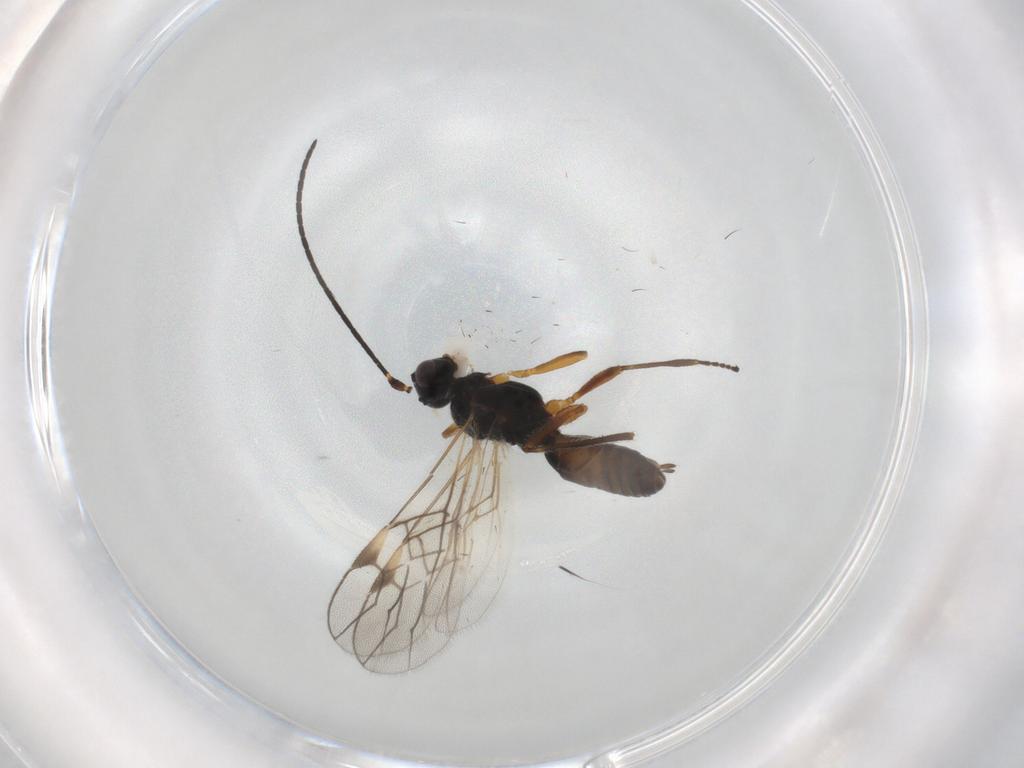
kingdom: Animalia
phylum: Arthropoda
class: Insecta
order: Hymenoptera
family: Braconidae
